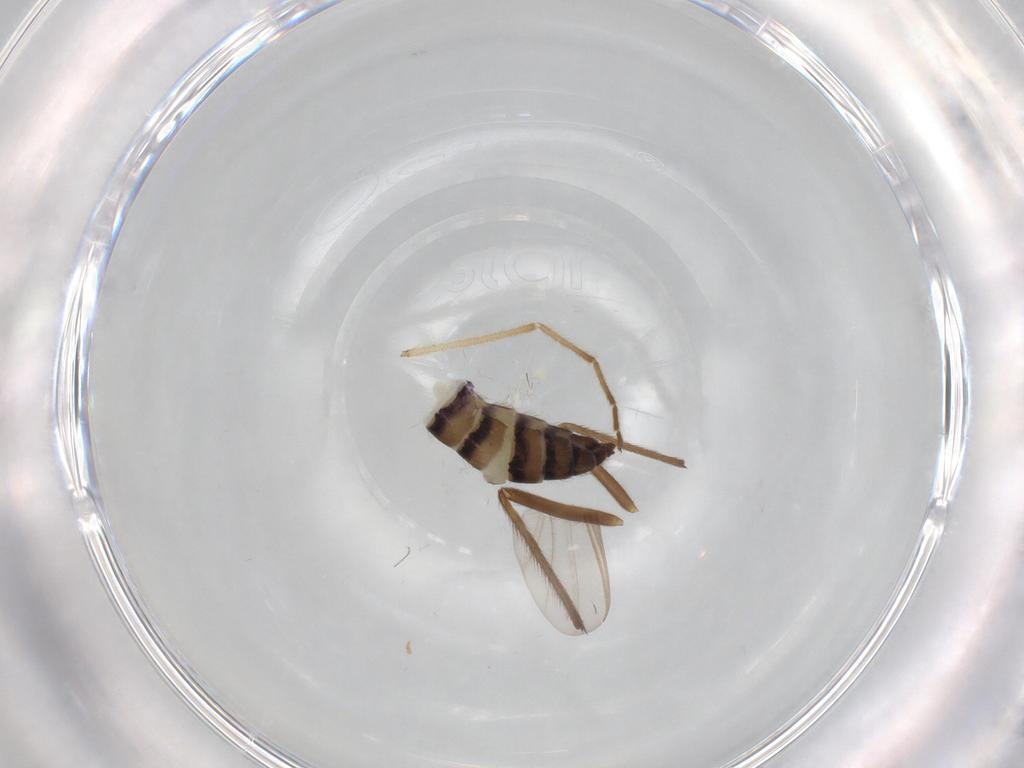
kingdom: Animalia
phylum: Arthropoda
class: Insecta
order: Diptera
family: Chironomidae
